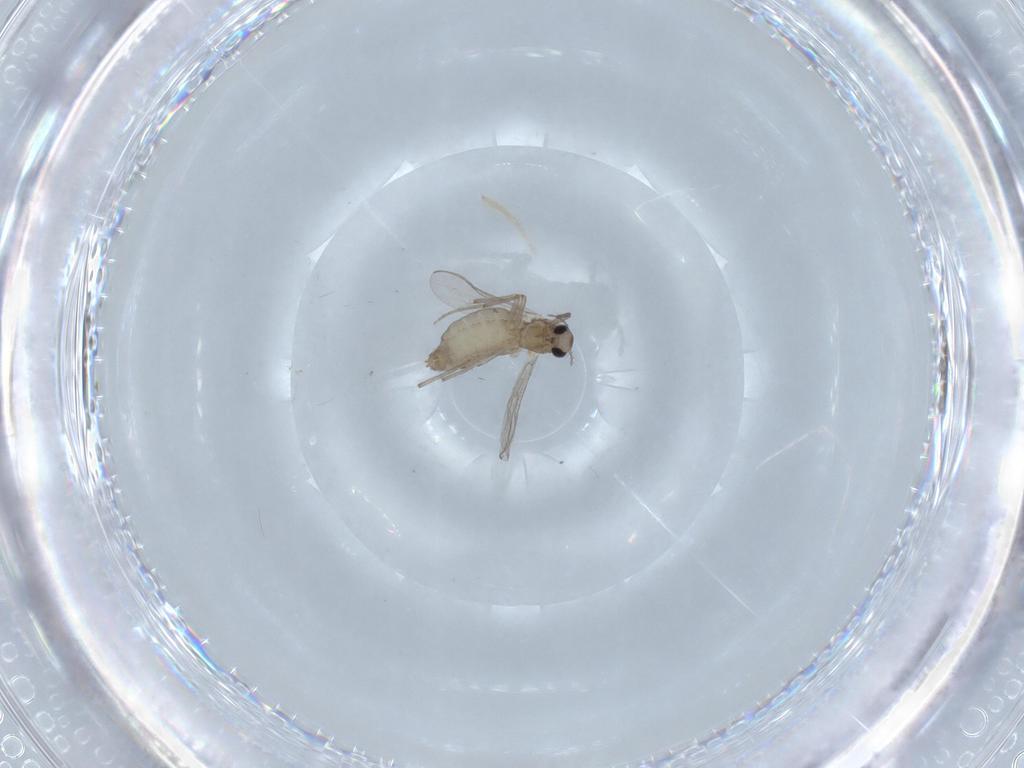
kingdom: Animalia
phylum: Arthropoda
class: Insecta
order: Diptera
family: Chironomidae
